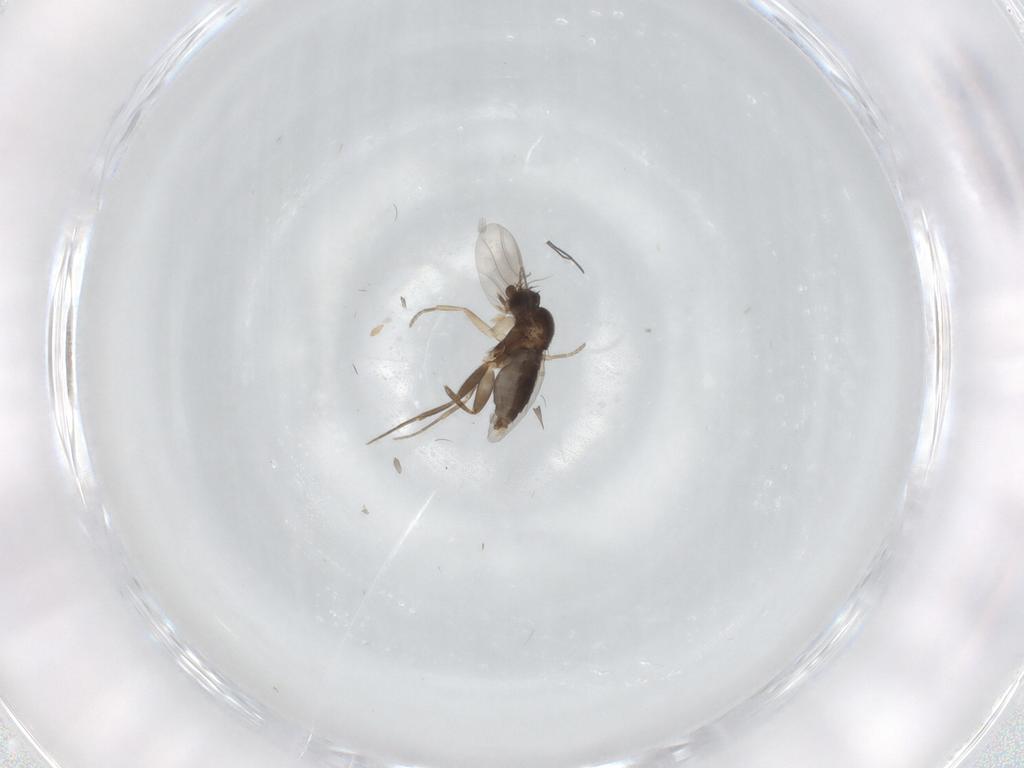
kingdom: Animalia
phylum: Arthropoda
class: Insecta
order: Diptera
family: Phoridae
